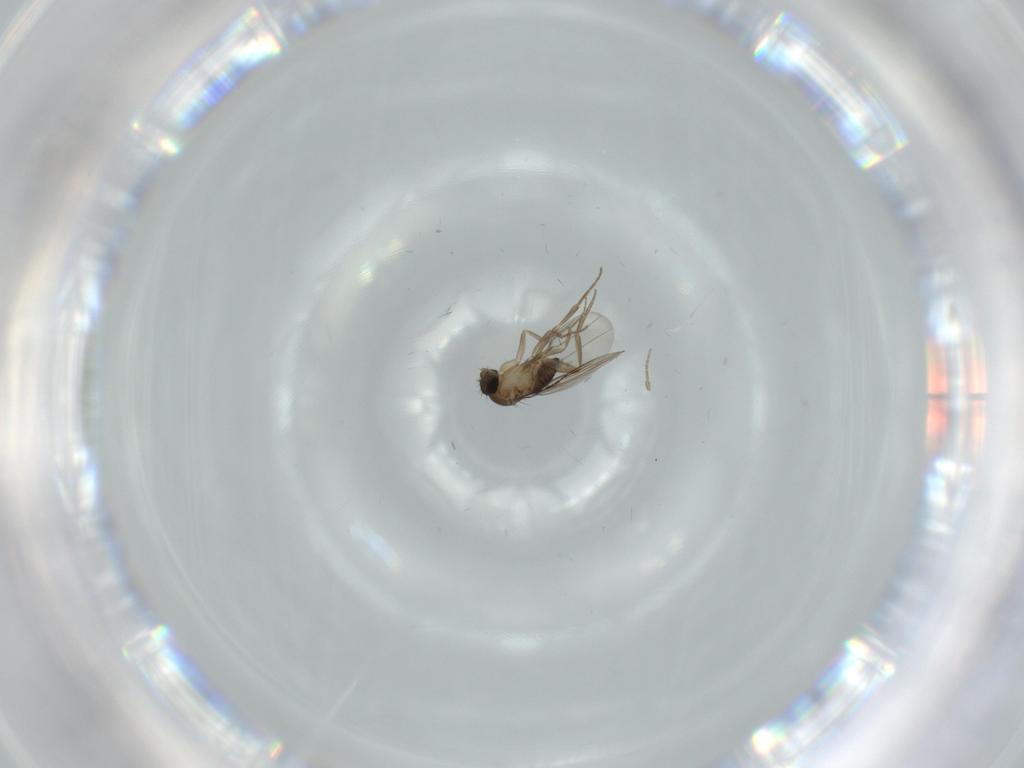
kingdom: Animalia
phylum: Arthropoda
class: Insecta
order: Diptera
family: Phoridae
